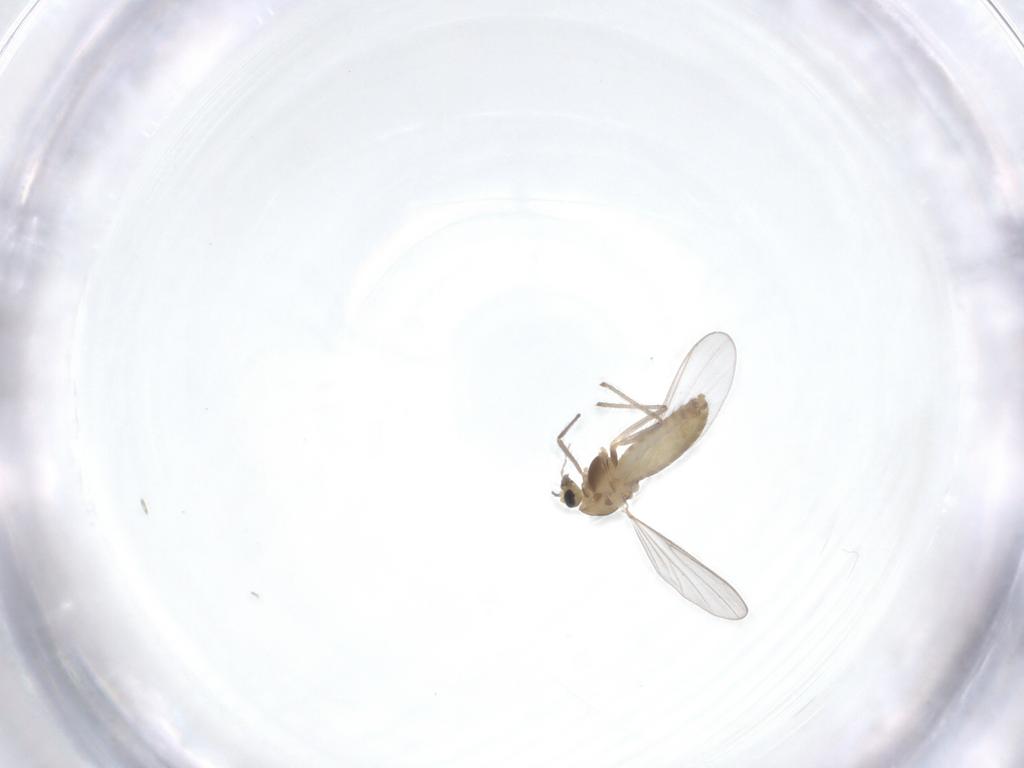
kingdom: Animalia
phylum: Arthropoda
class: Insecta
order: Diptera
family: Chironomidae
